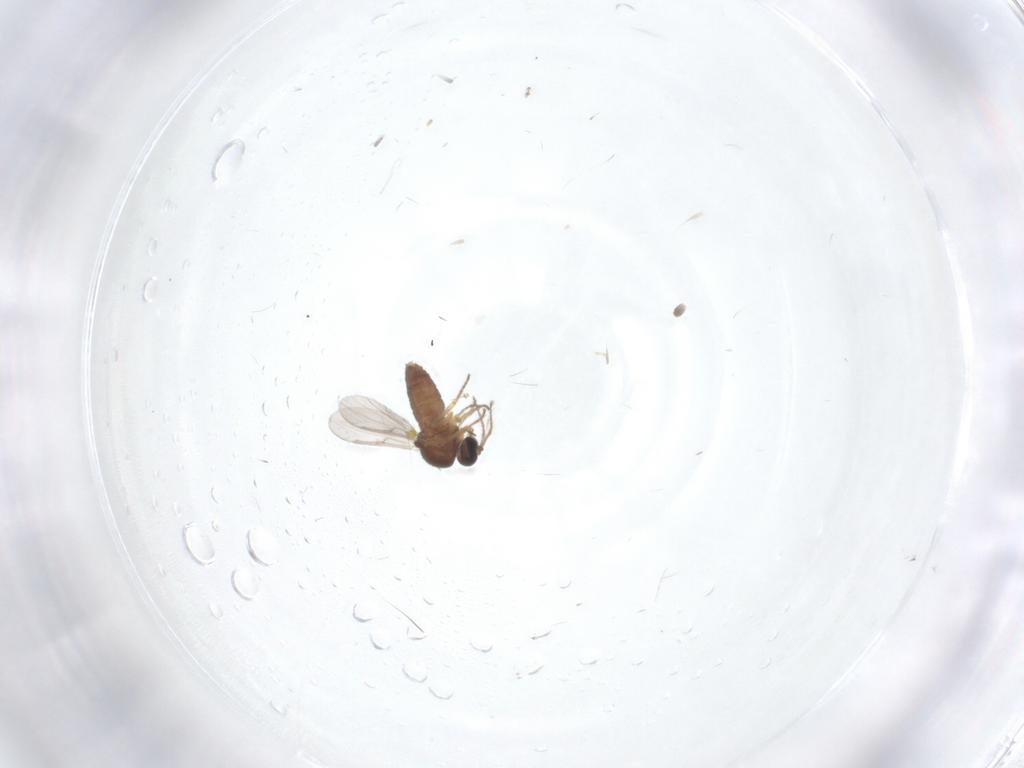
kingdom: Animalia
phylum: Arthropoda
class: Insecta
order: Diptera
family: Ceratopogonidae
